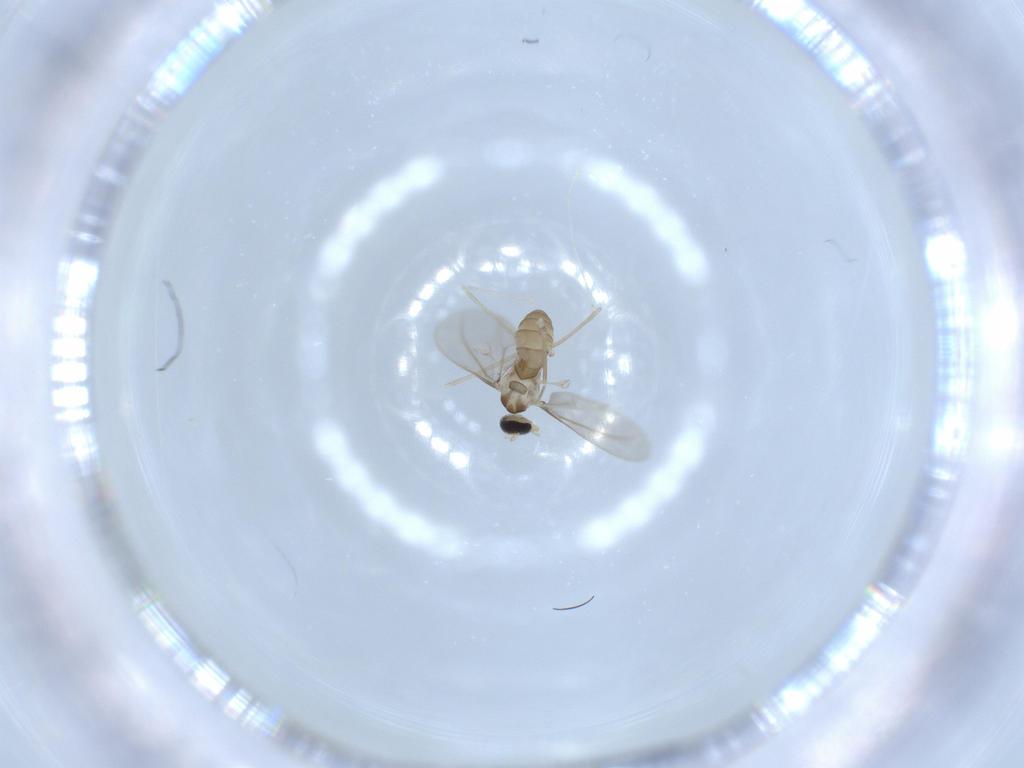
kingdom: Animalia
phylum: Arthropoda
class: Insecta
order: Diptera
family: Cecidomyiidae
